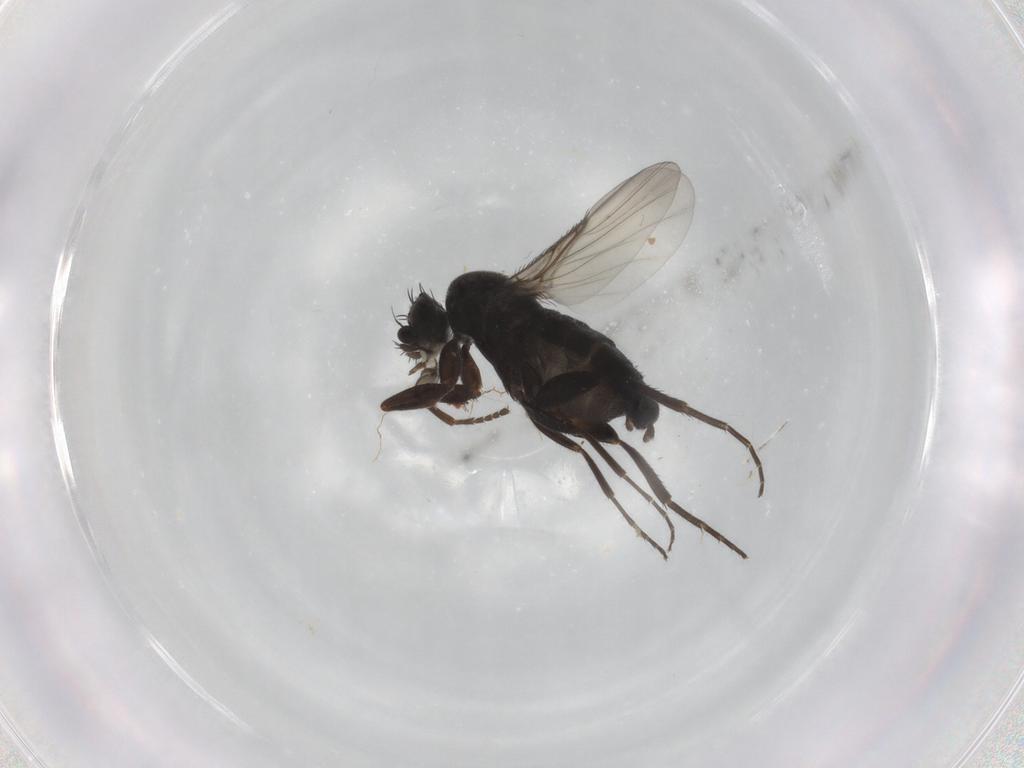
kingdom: Animalia
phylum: Arthropoda
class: Insecta
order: Diptera
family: Phoridae
